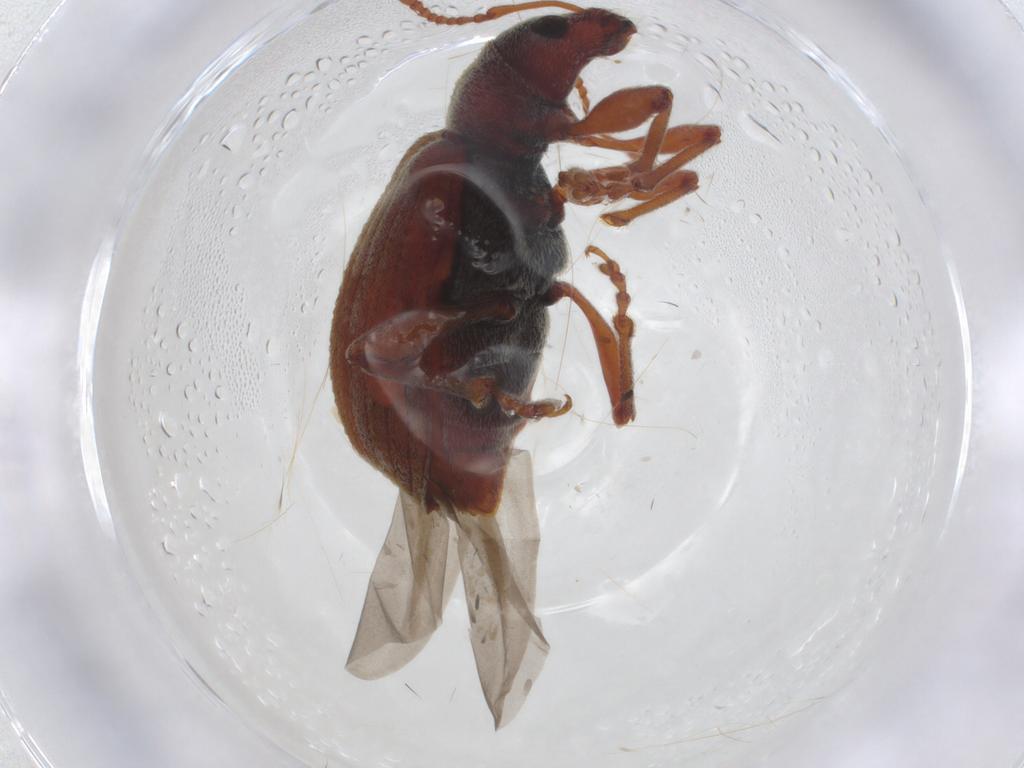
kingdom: Animalia
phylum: Arthropoda
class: Insecta
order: Coleoptera
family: Curculionidae
